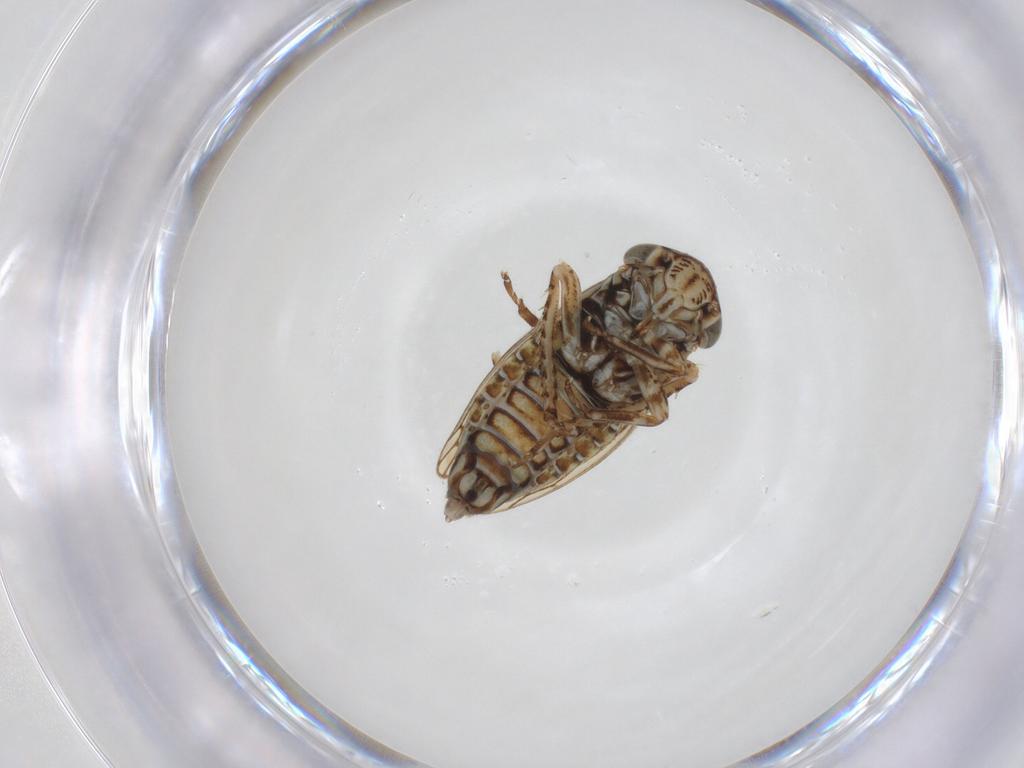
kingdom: Animalia
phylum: Arthropoda
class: Insecta
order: Hemiptera
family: Cicadellidae
